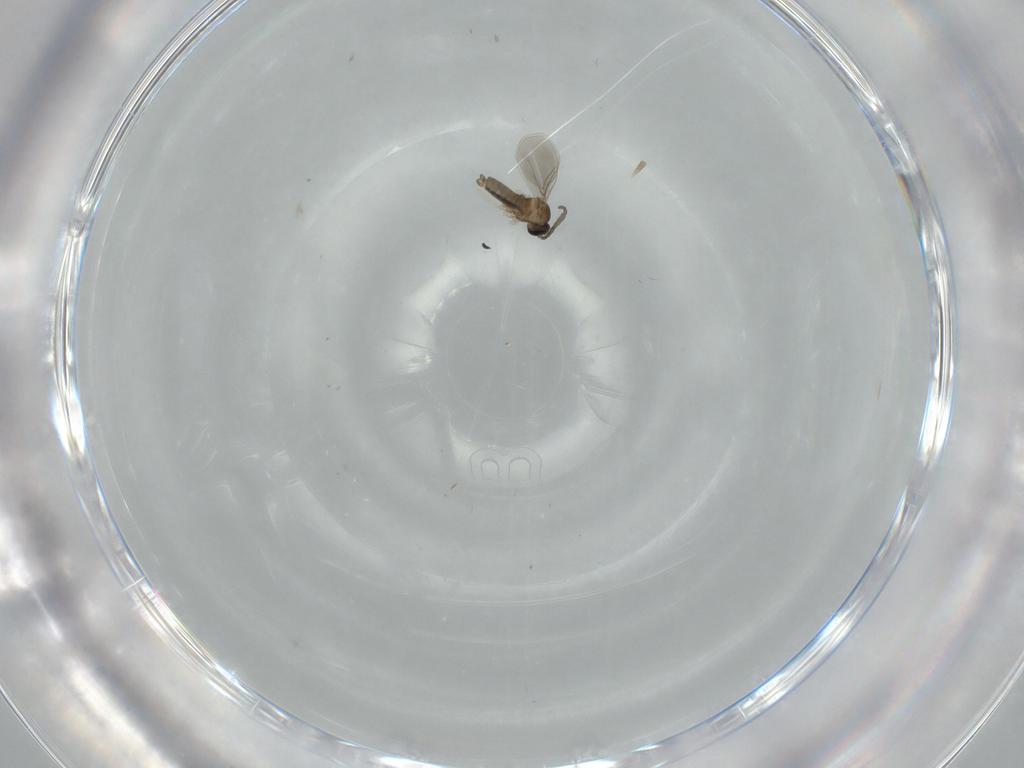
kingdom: Animalia
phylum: Arthropoda
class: Insecta
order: Diptera
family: Cecidomyiidae
